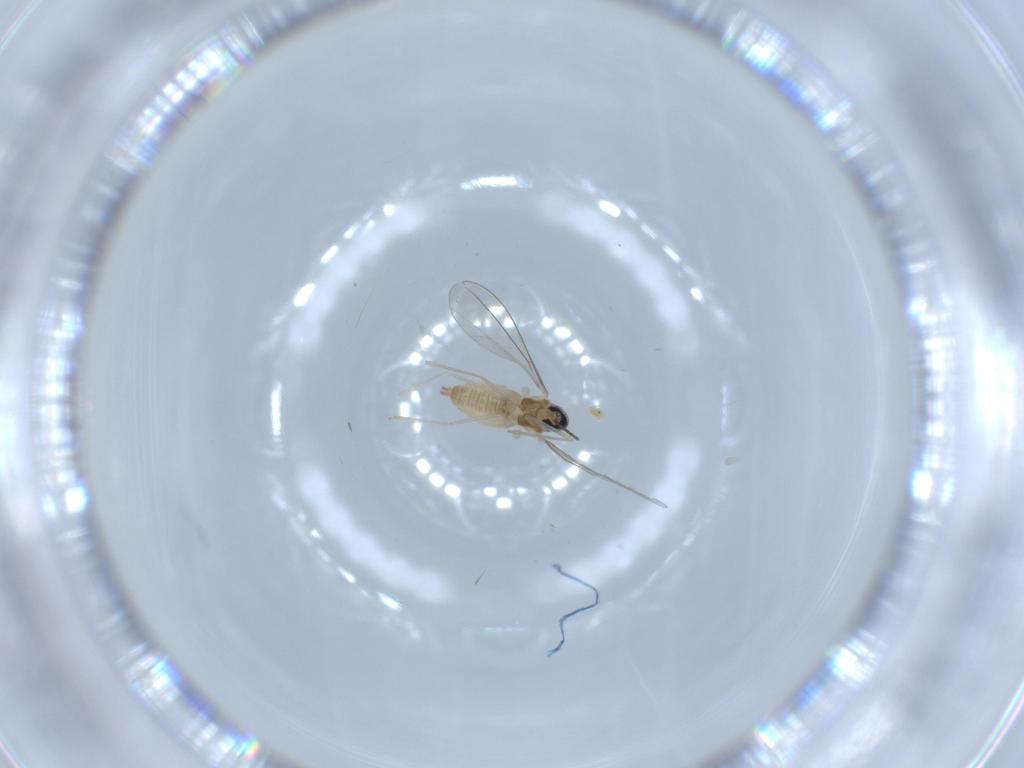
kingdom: Animalia
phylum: Arthropoda
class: Insecta
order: Diptera
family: Cecidomyiidae
